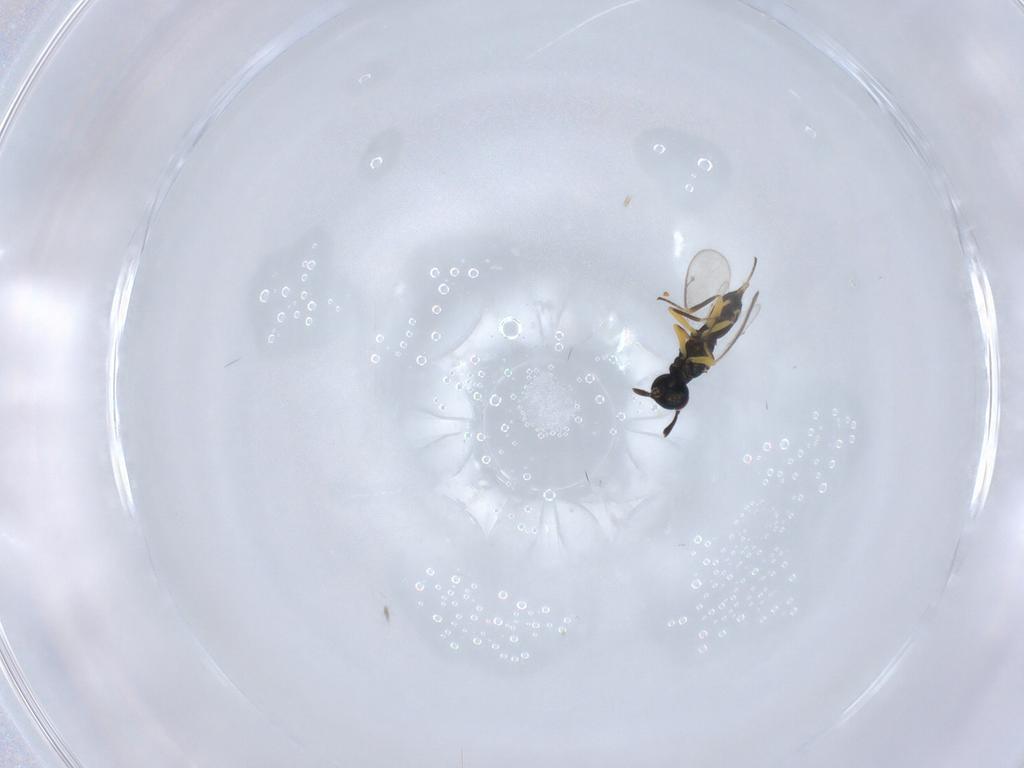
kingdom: Animalia
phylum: Arthropoda
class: Insecta
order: Hymenoptera
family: Eupelmidae
